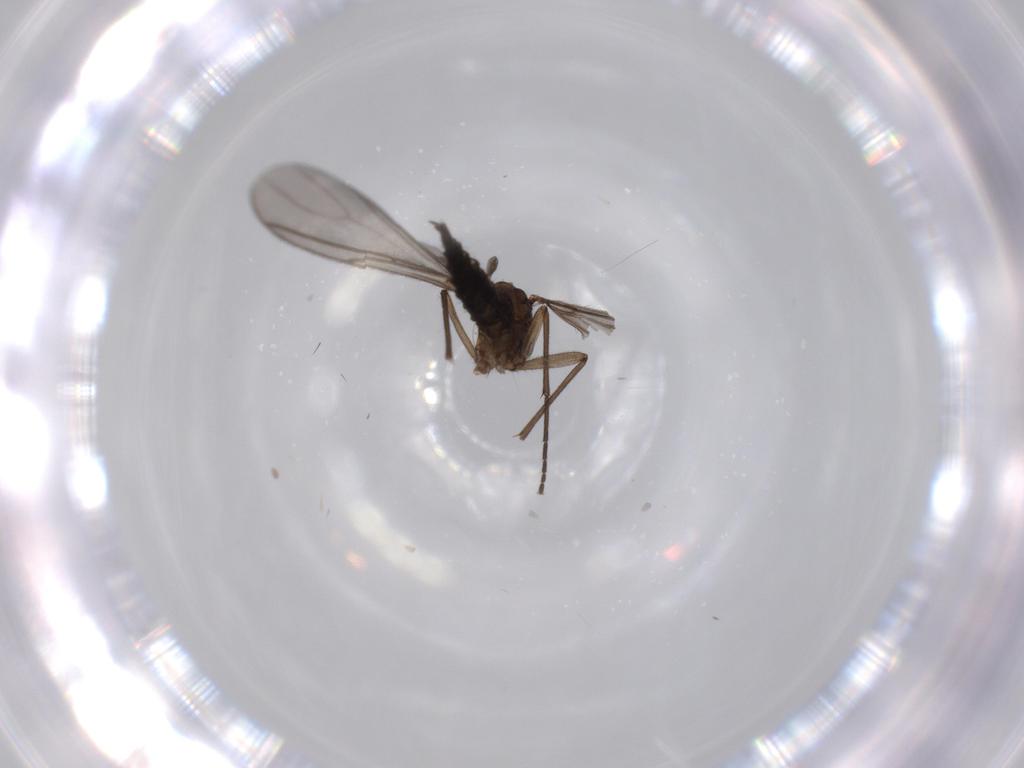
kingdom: Animalia
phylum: Arthropoda
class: Insecta
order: Diptera
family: Sciaridae
